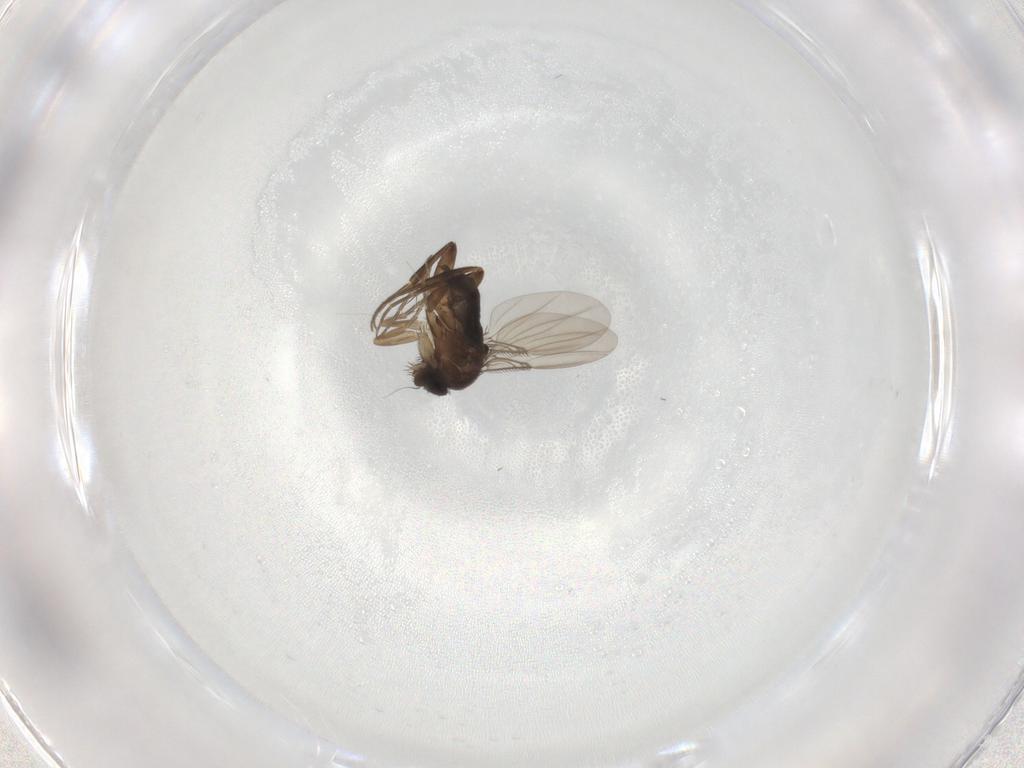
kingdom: Animalia
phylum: Arthropoda
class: Insecta
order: Diptera
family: Phoridae
